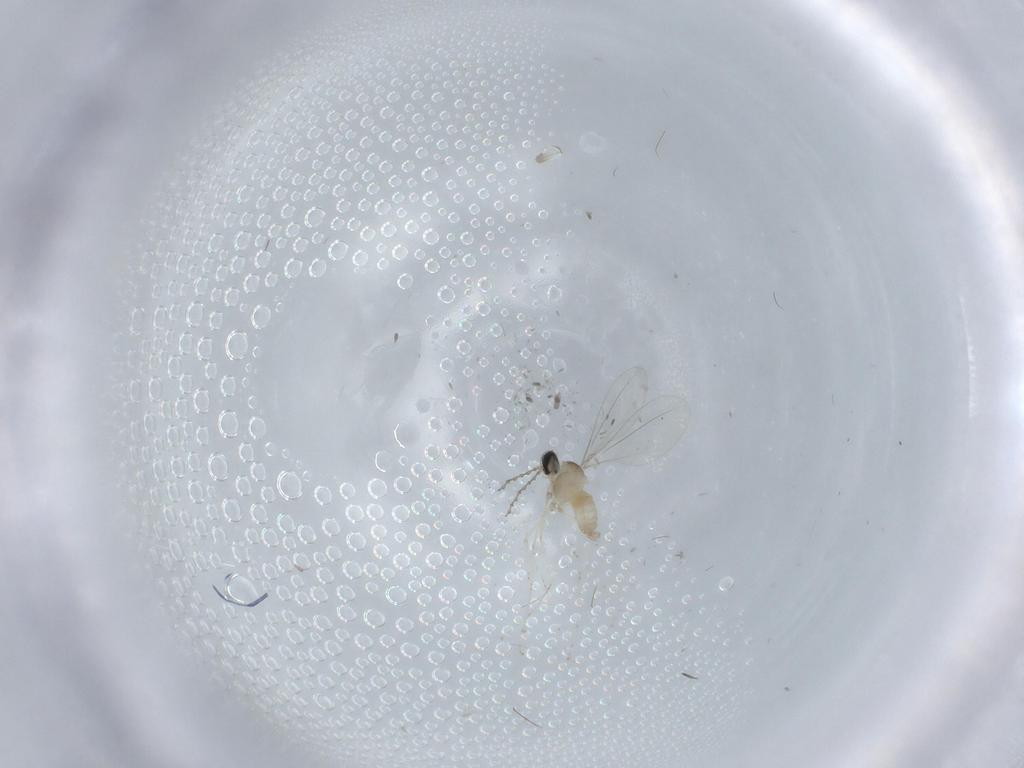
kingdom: Animalia
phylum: Arthropoda
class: Insecta
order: Diptera
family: Cecidomyiidae
